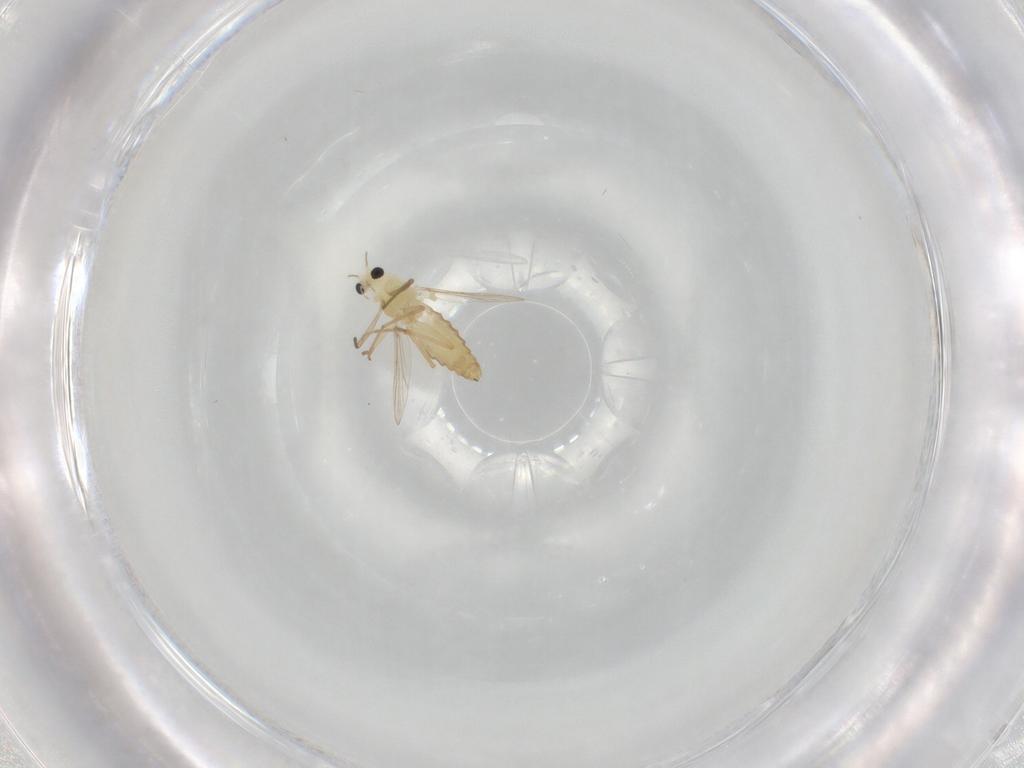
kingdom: Animalia
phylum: Arthropoda
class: Insecta
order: Diptera
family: Chironomidae
